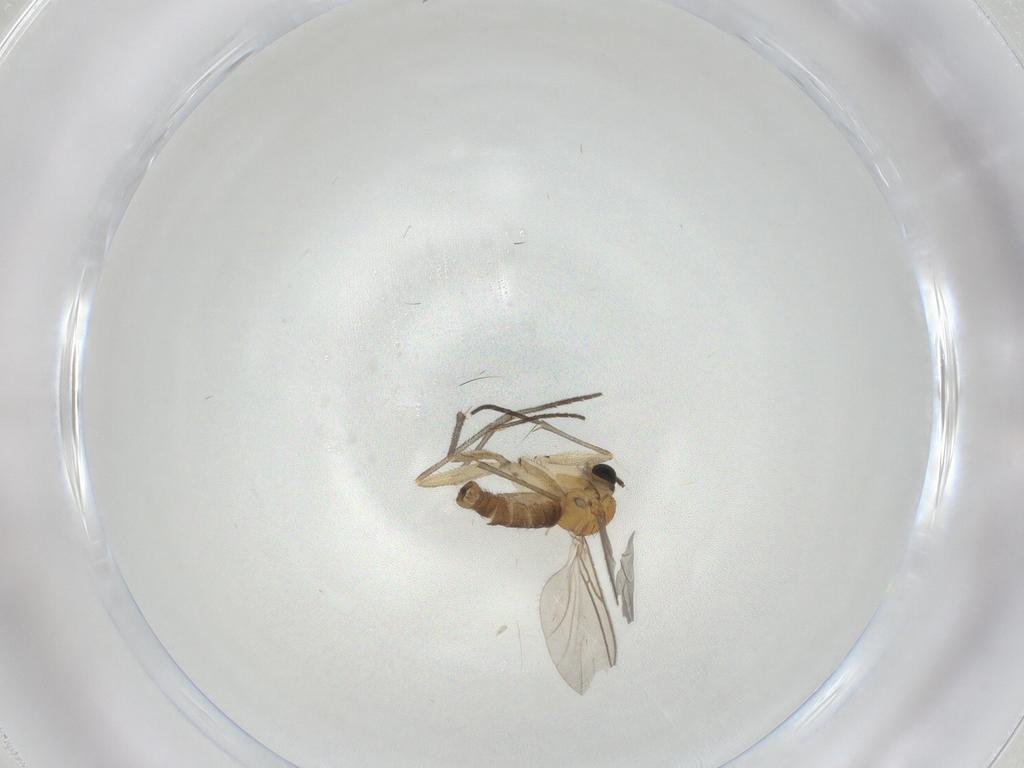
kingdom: Animalia
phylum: Arthropoda
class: Insecta
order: Diptera
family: Sciaridae
